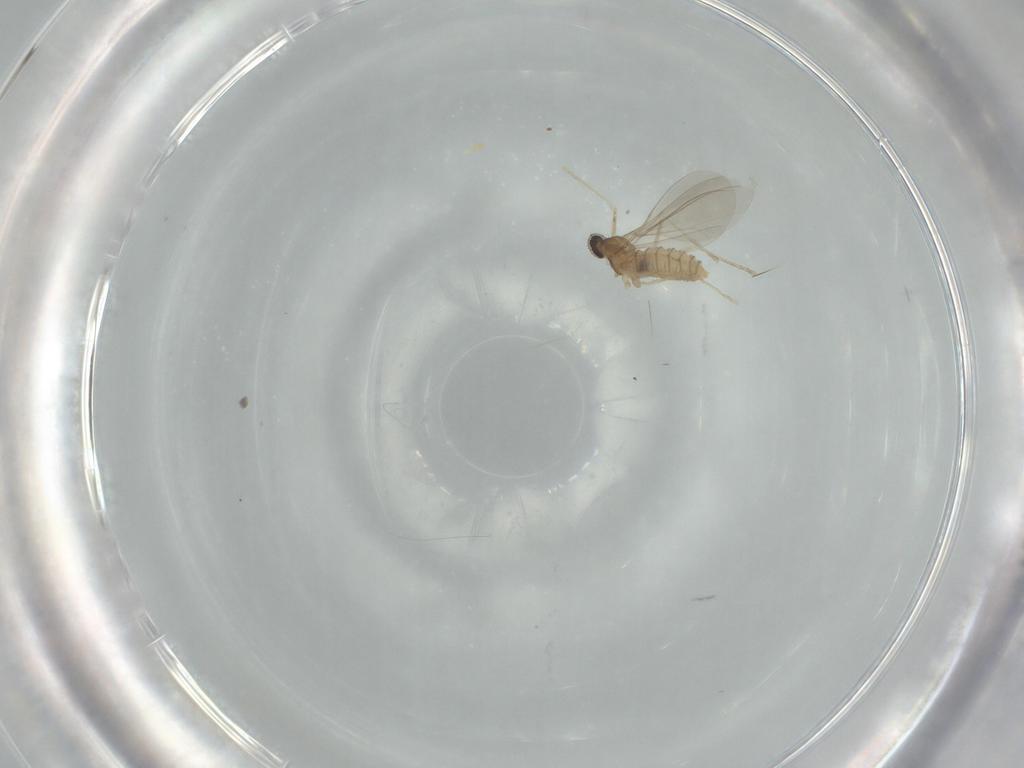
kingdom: Animalia
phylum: Arthropoda
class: Insecta
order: Diptera
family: Cecidomyiidae
